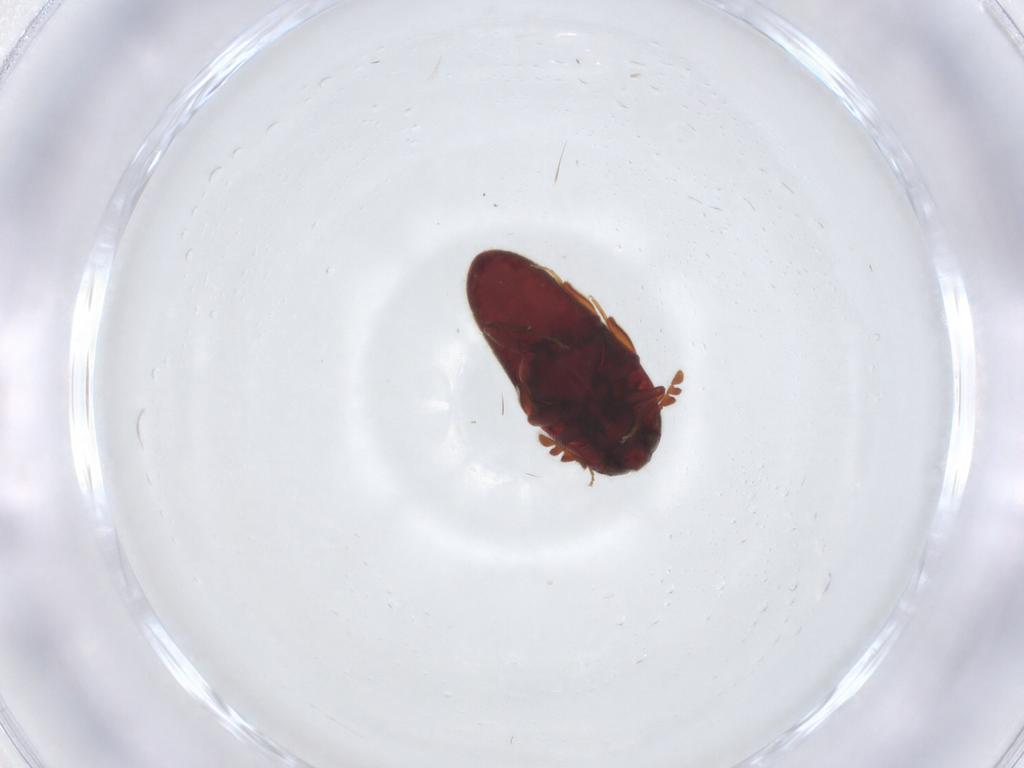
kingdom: Animalia
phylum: Arthropoda
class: Insecta
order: Coleoptera
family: Throscidae
